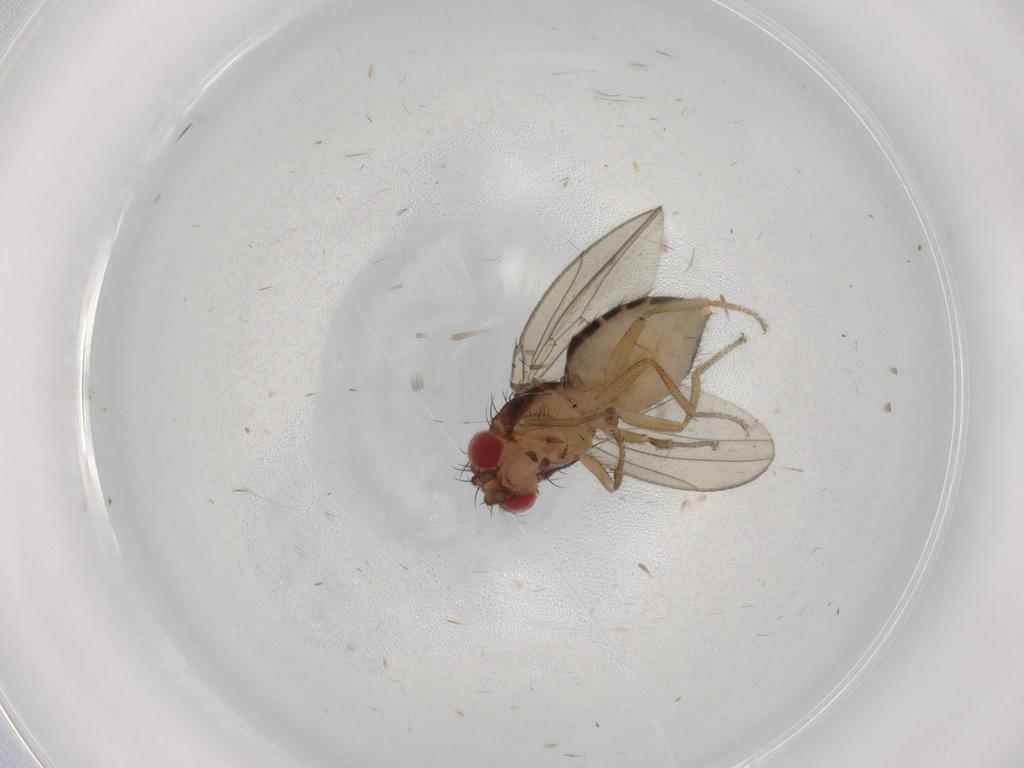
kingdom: Animalia
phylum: Arthropoda
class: Insecta
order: Diptera
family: Drosophilidae
